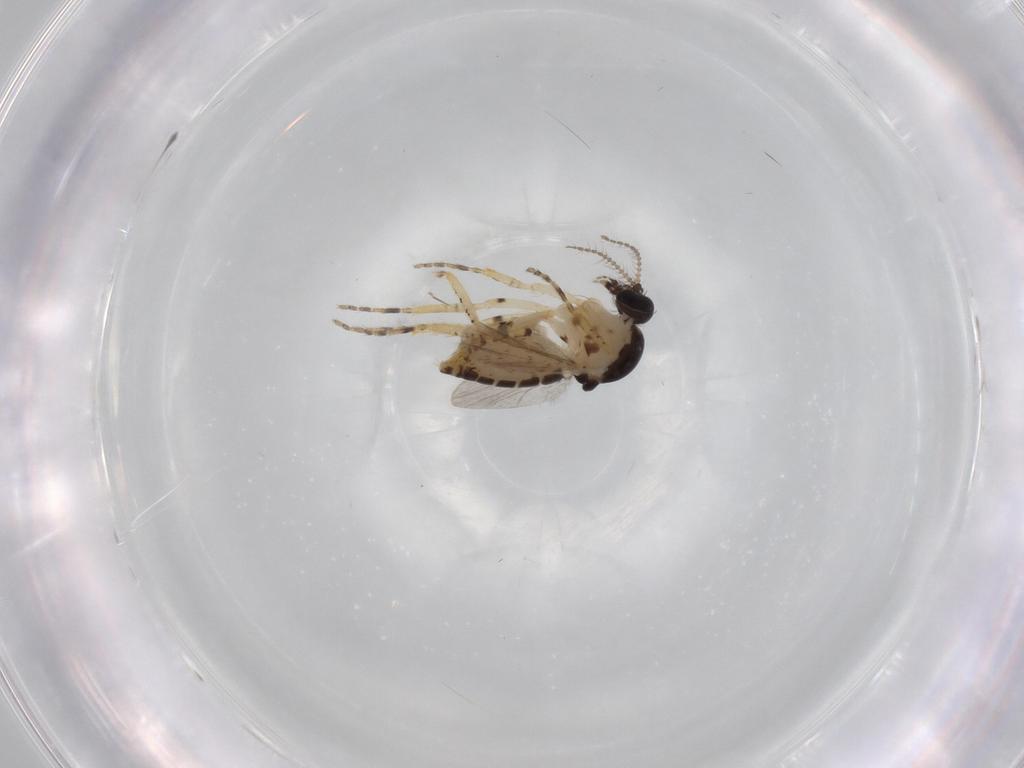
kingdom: Animalia
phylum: Arthropoda
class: Insecta
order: Diptera
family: Ceratopogonidae
